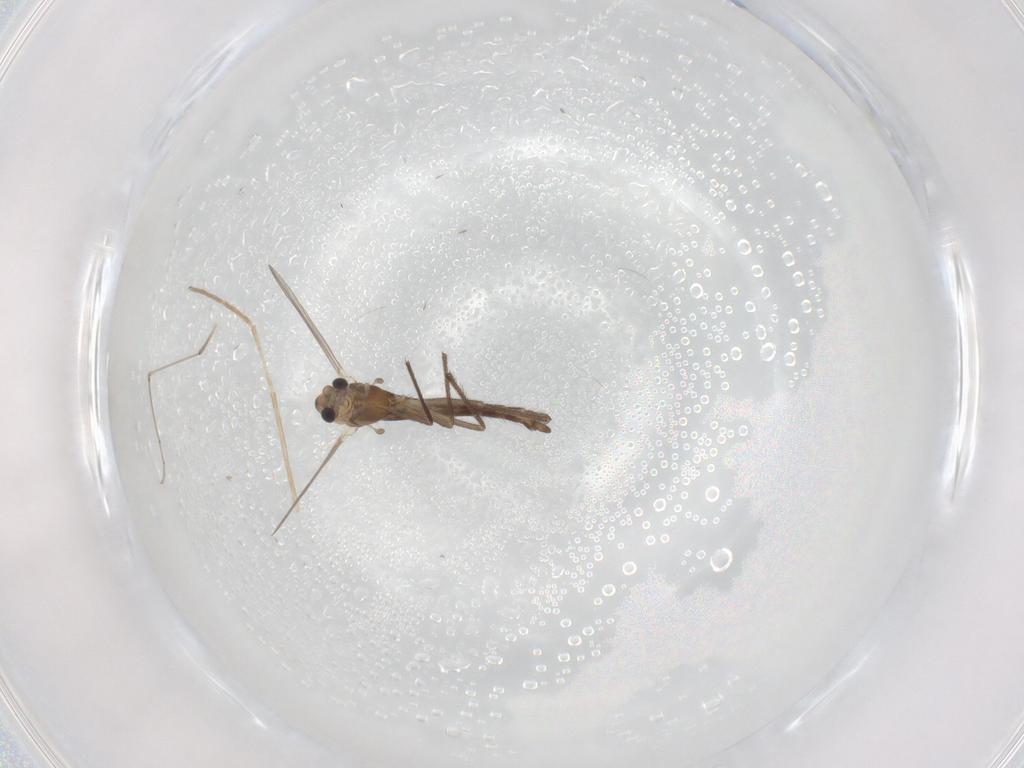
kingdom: Animalia
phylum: Arthropoda
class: Insecta
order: Diptera
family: Chironomidae
